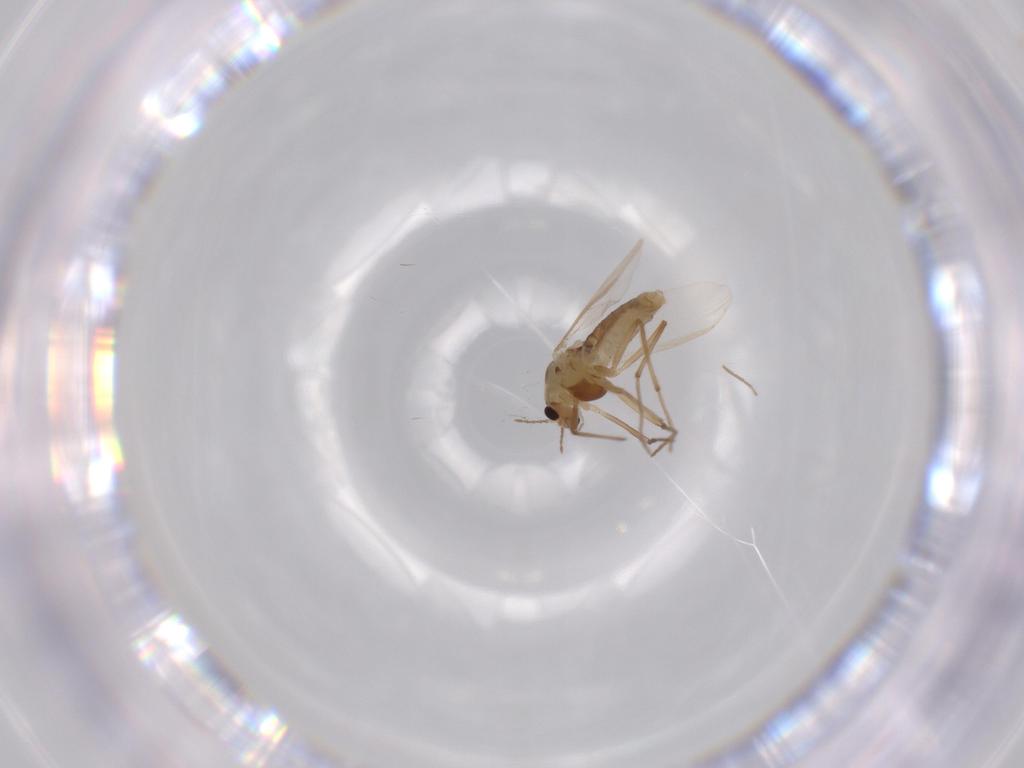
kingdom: Animalia
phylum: Arthropoda
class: Insecta
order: Diptera
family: Chironomidae
